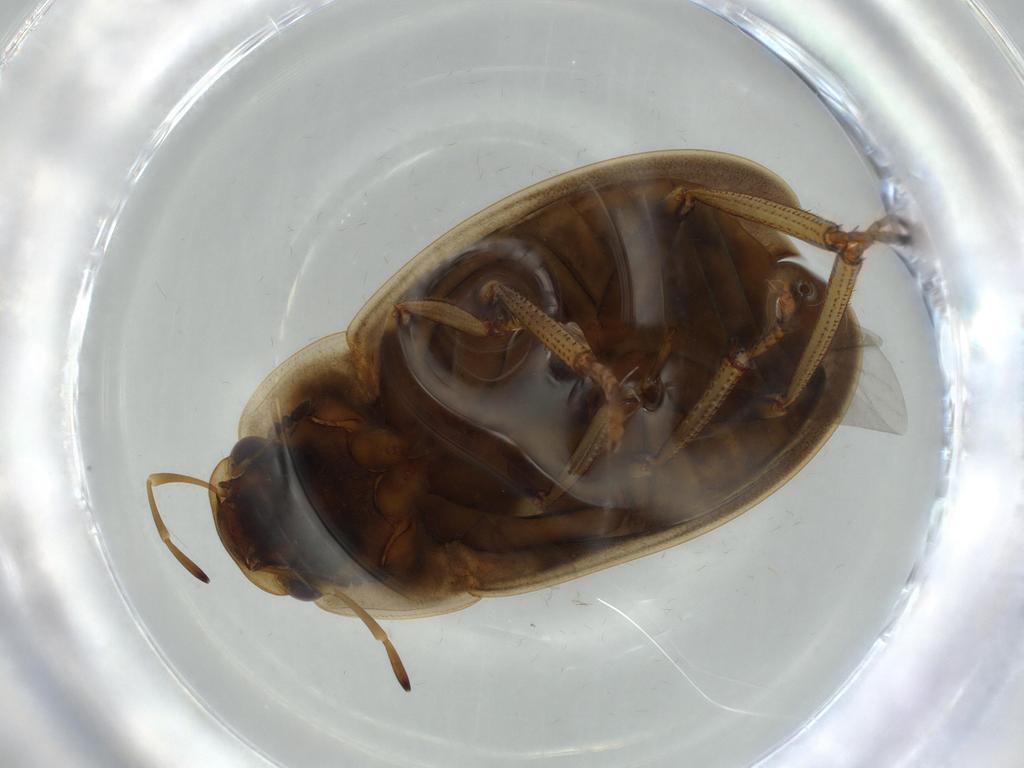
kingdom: Animalia
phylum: Arthropoda
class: Insecta
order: Coleoptera
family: Hydrophilidae
